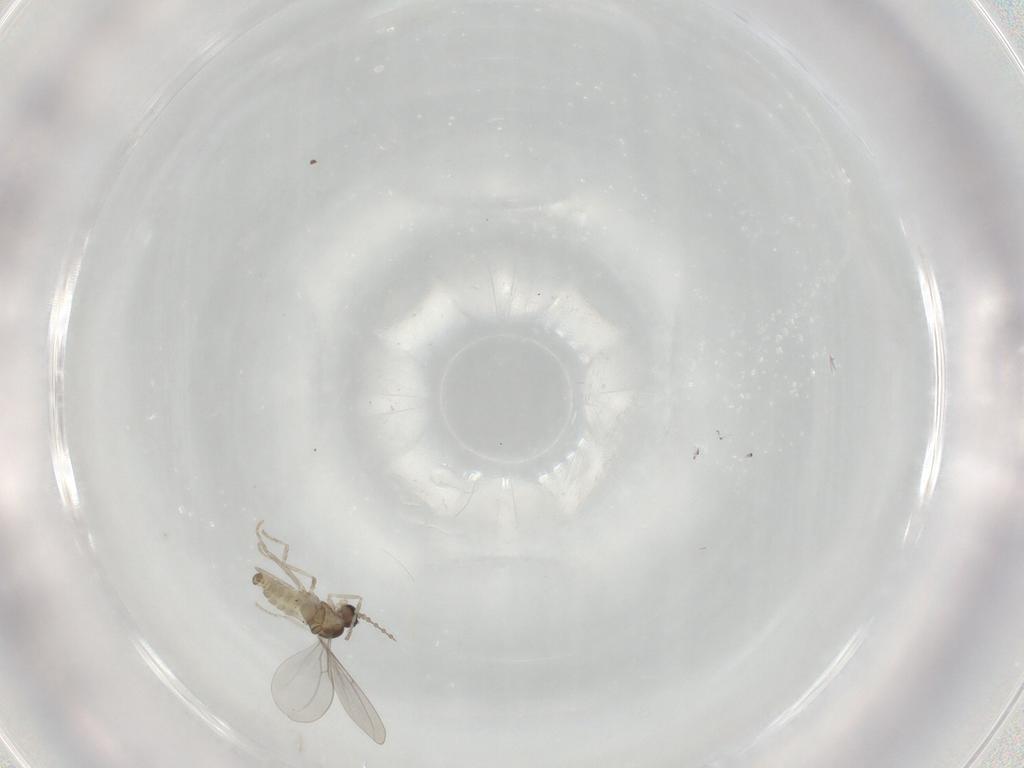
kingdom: Animalia
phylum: Arthropoda
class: Insecta
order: Diptera
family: Cecidomyiidae
